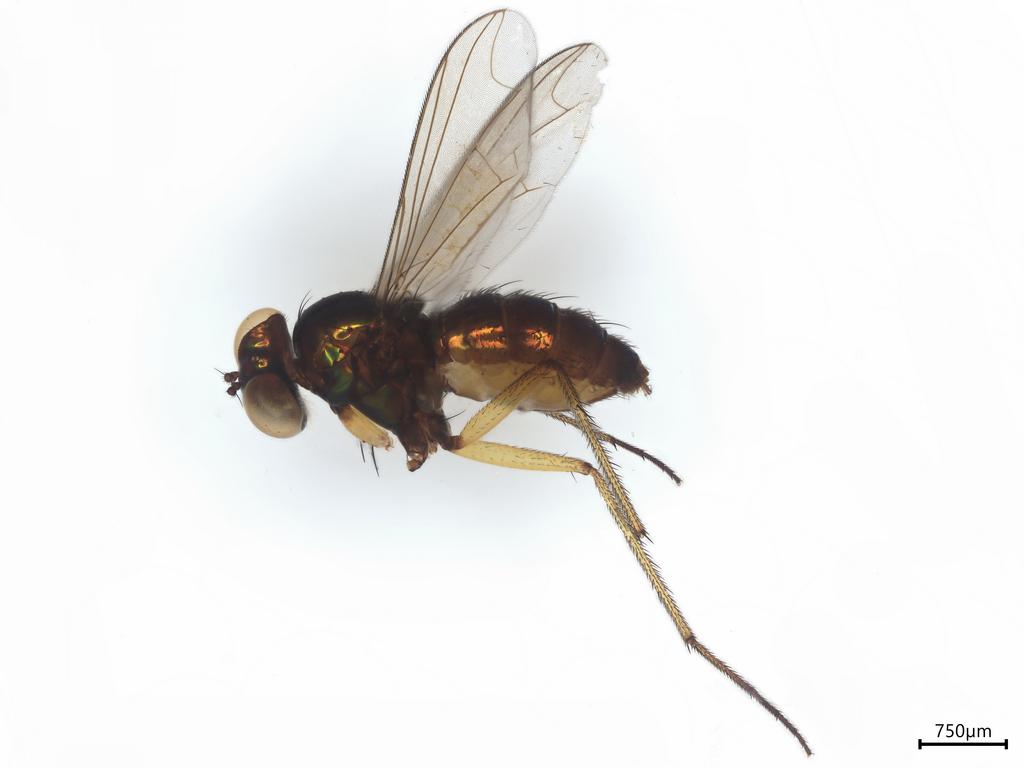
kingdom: Animalia
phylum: Arthropoda
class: Insecta
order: Diptera
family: Dolichopodidae
